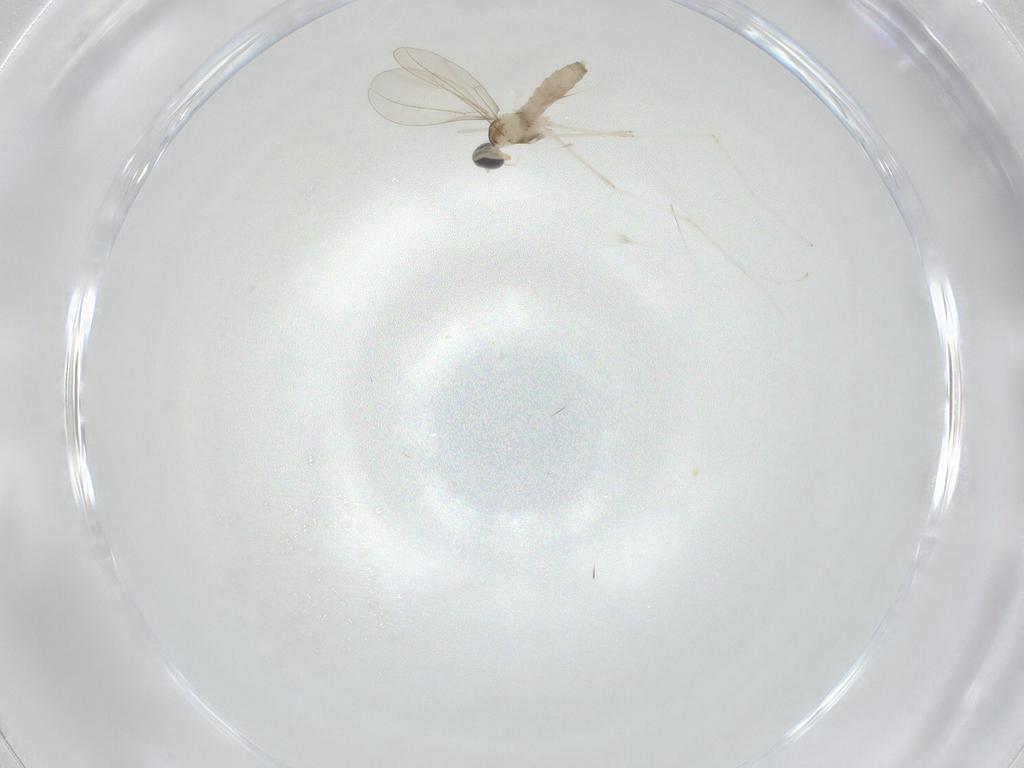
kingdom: Animalia
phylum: Arthropoda
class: Insecta
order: Diptera
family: Cecidomyiidae
